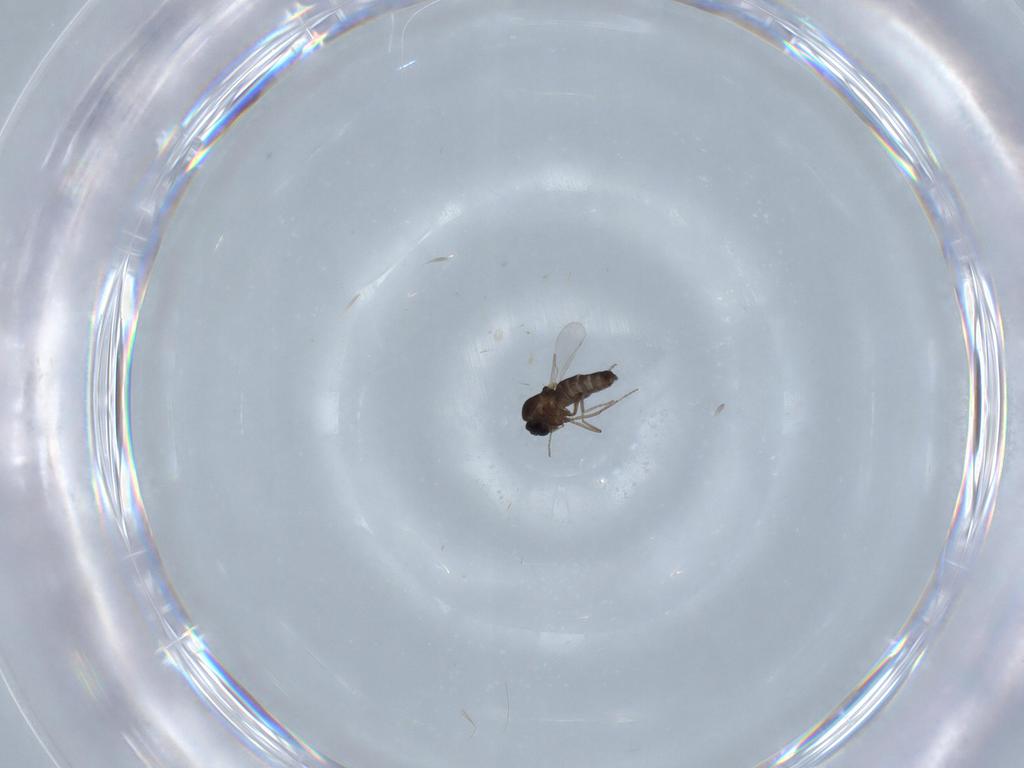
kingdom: Animalia
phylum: Arthropoda
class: Insecta
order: Diptera
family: Ceratopogonidae
